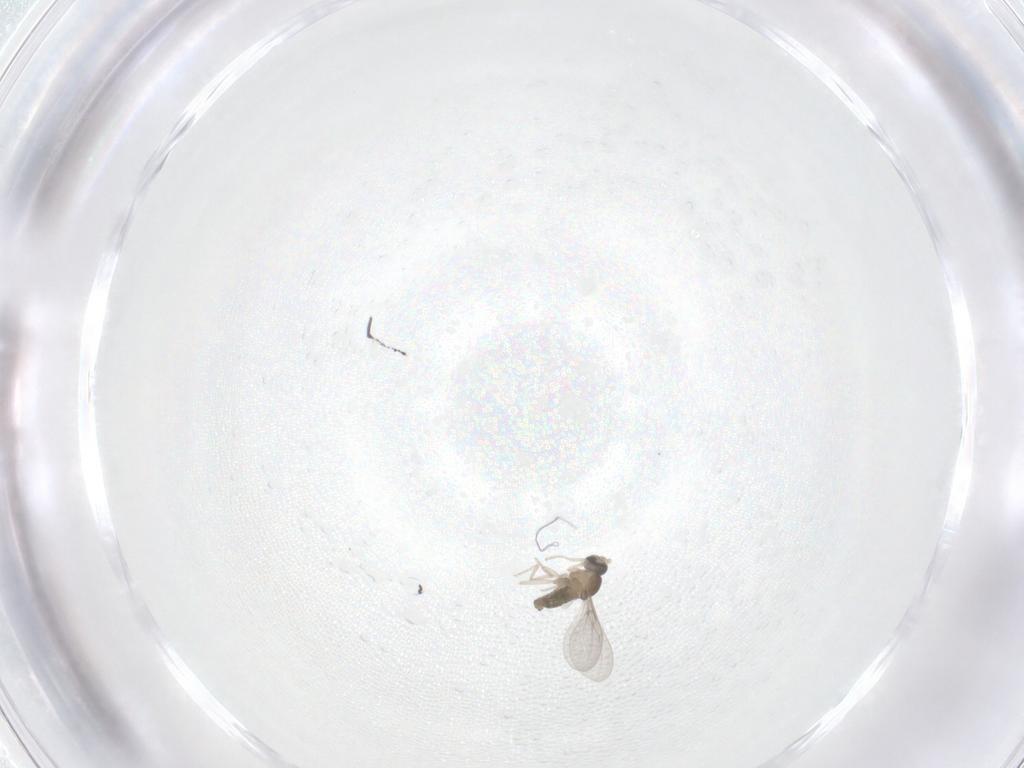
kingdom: Animalia
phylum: Arthropoda
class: Insecta
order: Diptera
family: Cecidomyiidae
